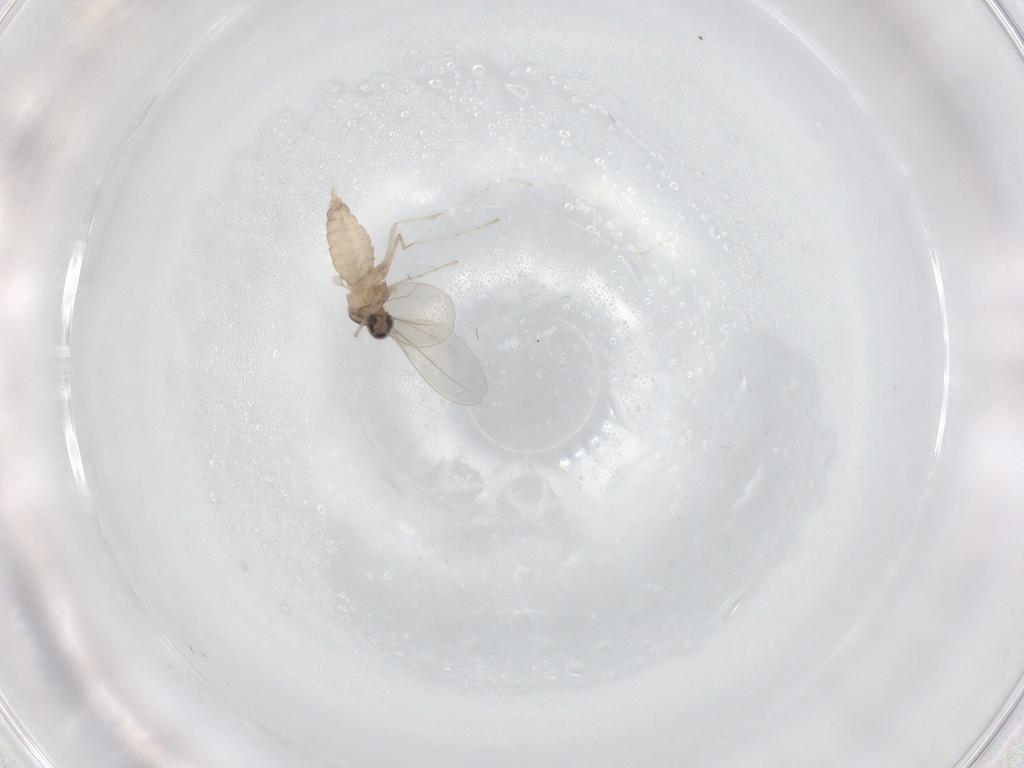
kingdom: Animalia
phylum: Arthropoda
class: Insecta
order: Diptera
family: Cecidomyiidae
